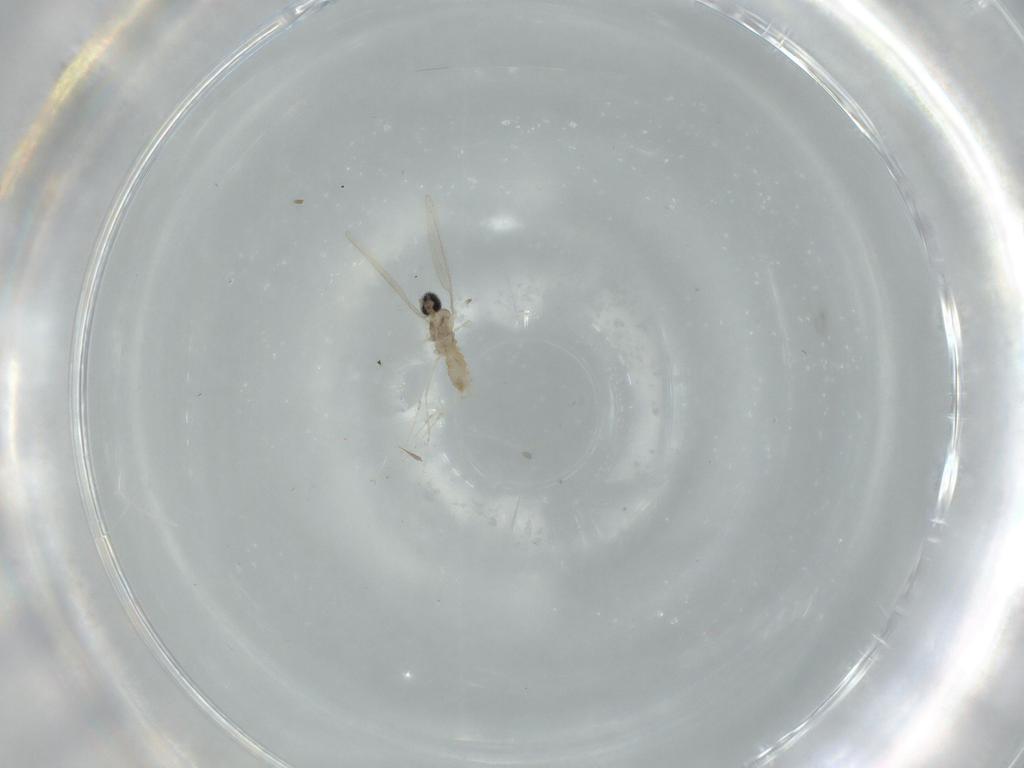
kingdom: Animalia
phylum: Arthropoda
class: Insecta
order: Diptera
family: Cecidomyiidae
